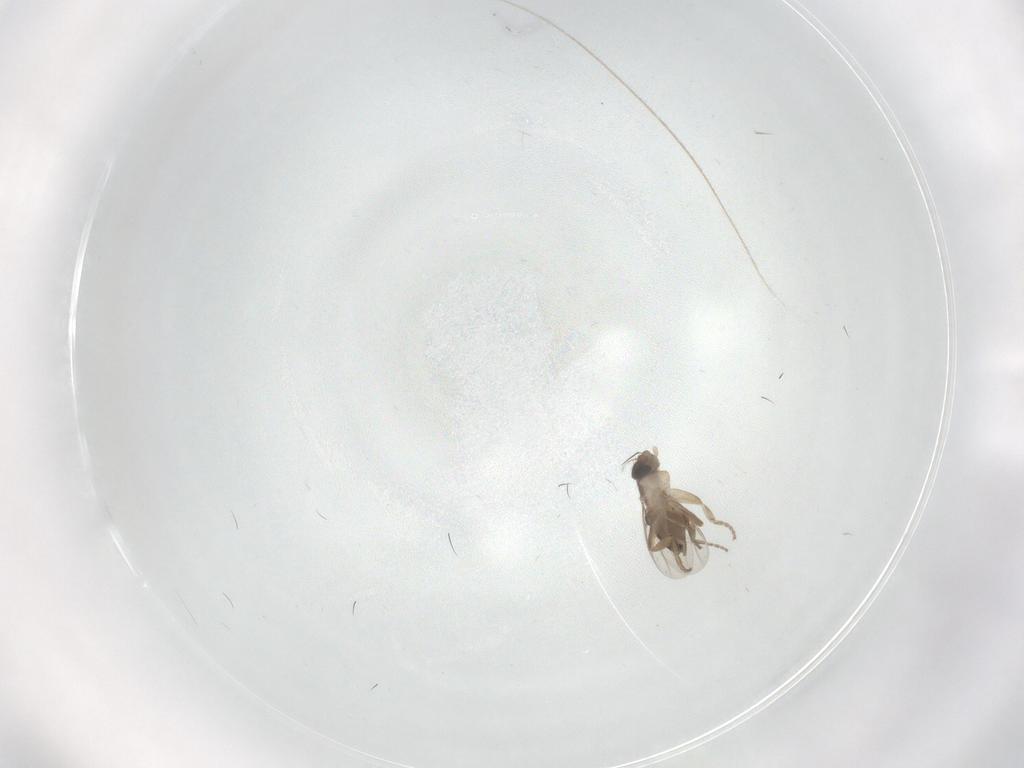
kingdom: Animalia
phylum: Arthropoda
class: Insecta
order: Diptera
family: Phoridae
